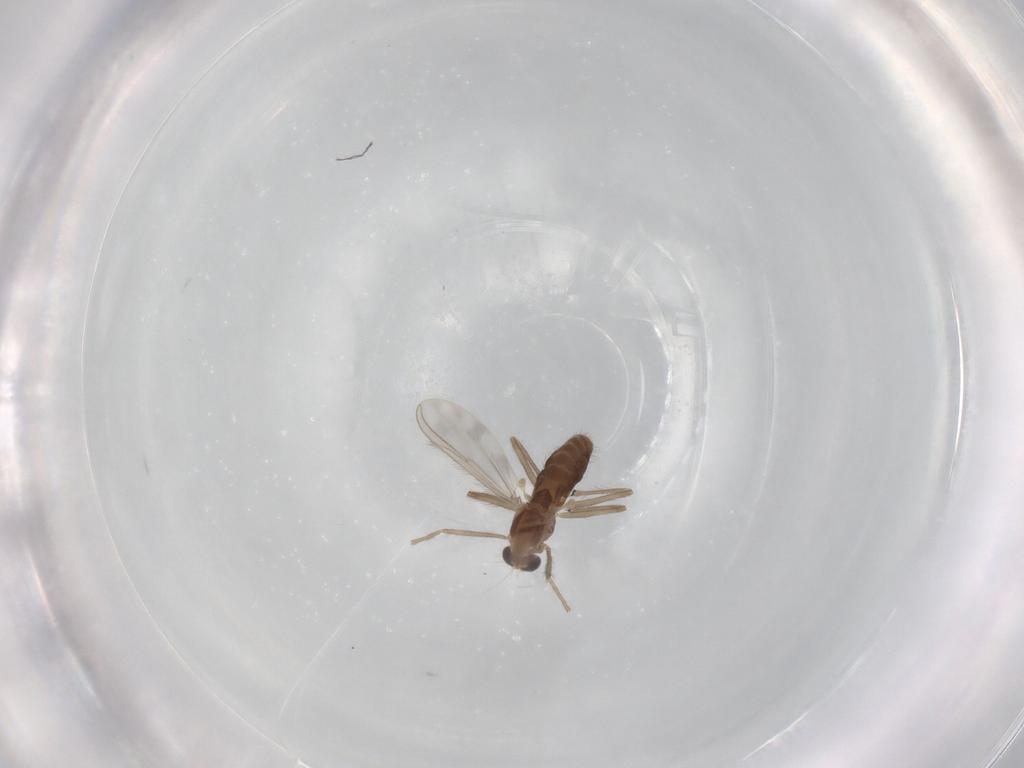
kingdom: Animalia
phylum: Arthropoda
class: Insecta
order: Diptera
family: Chironomidae
